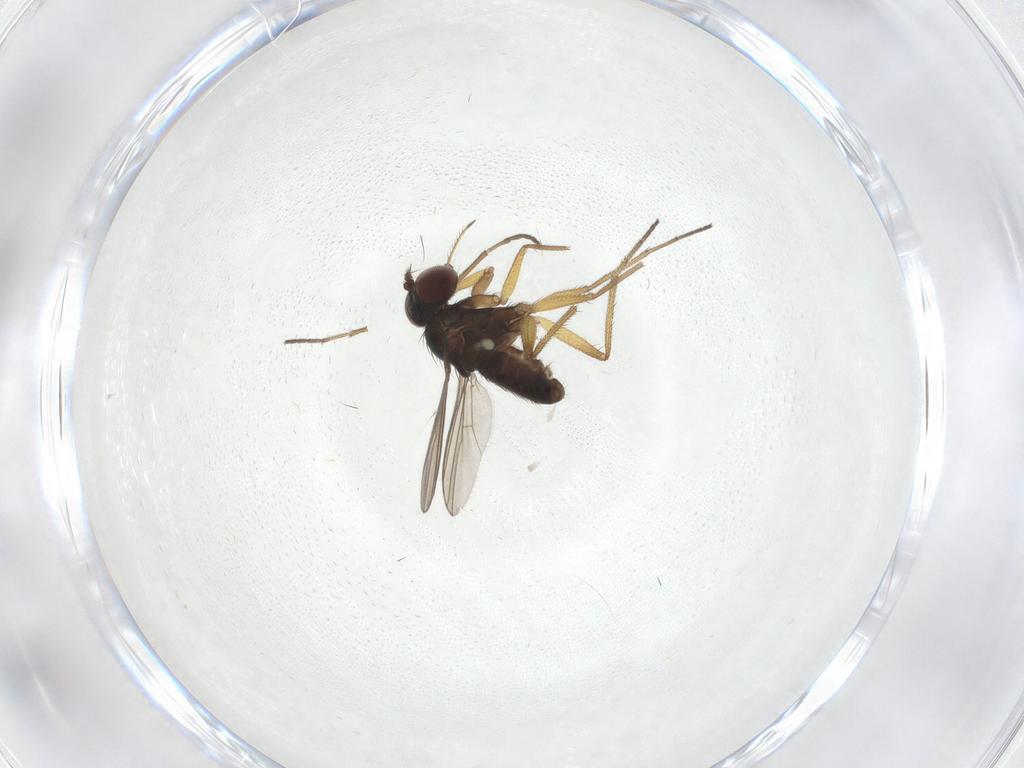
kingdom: Animalia
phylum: Arthropoda
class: Insecta
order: Diptera
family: Dolichopodidae
